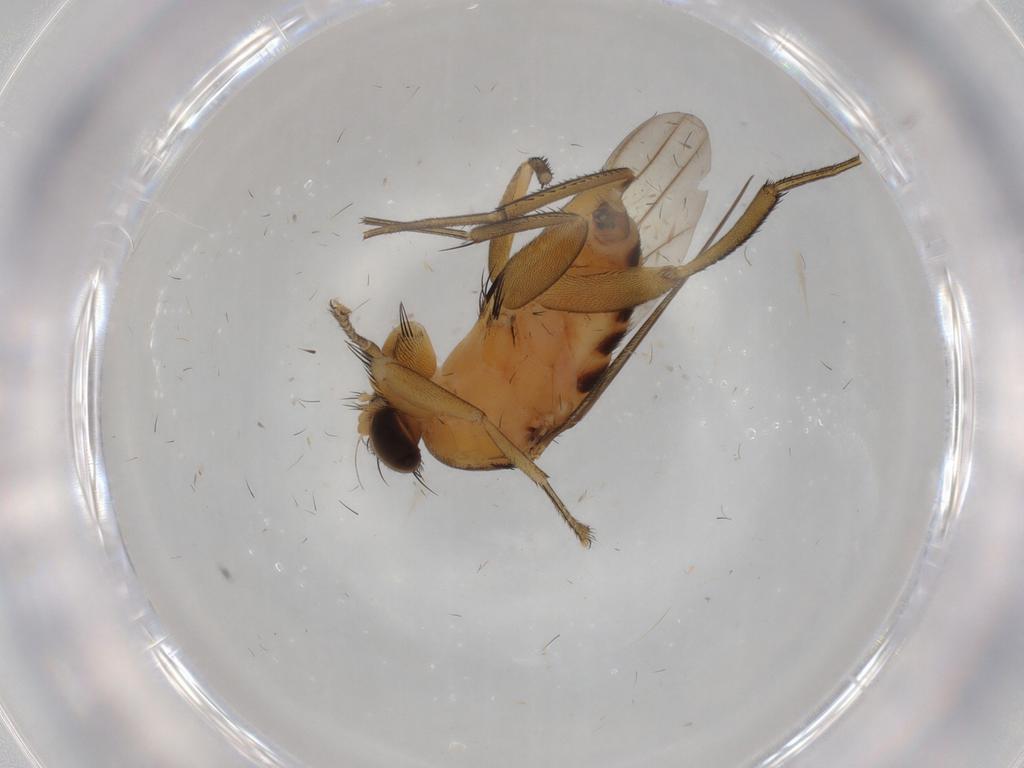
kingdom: Animalia
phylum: Arthropoda
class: Insecta
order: Diptera
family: Phoridae
